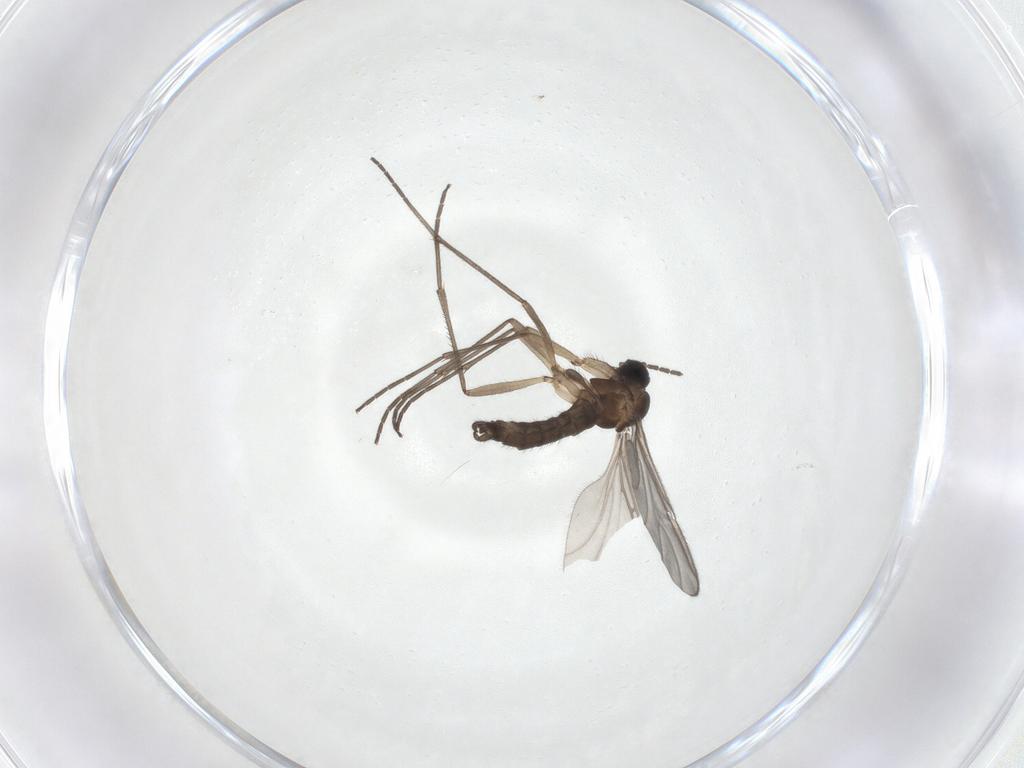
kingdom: Animalia
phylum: Arthropoda
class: Insecta
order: Diptera
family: Sciaridae
